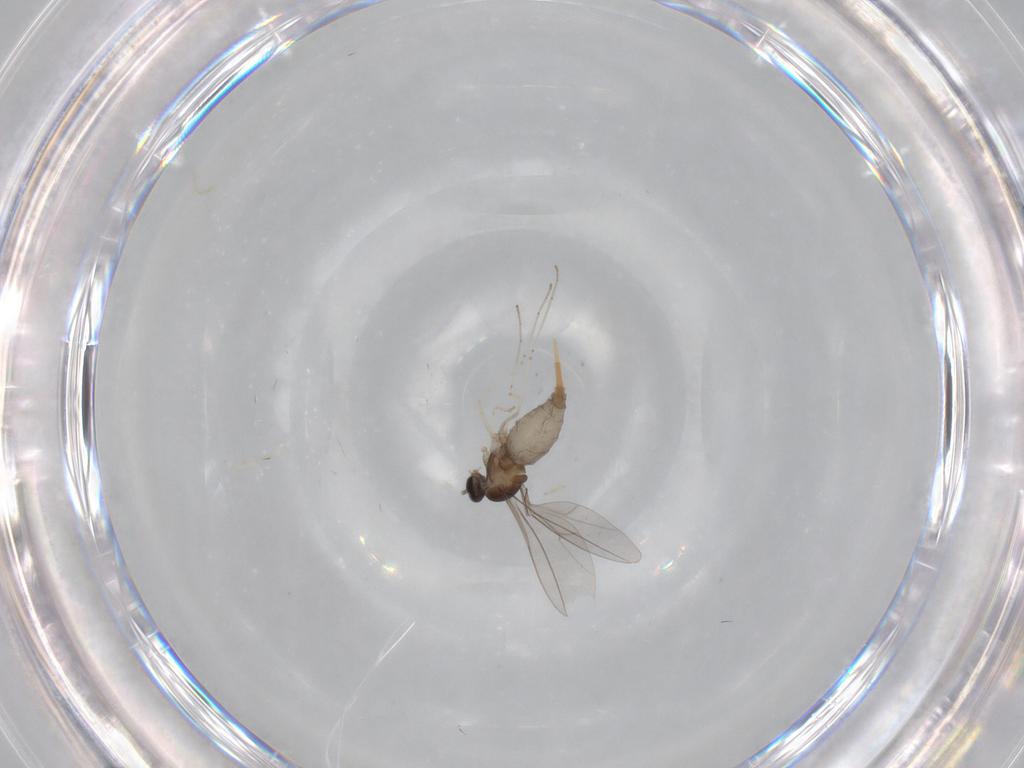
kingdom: Animalia
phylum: Arthropoda
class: Insecta
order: Diptera
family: Cecidomyiidae
